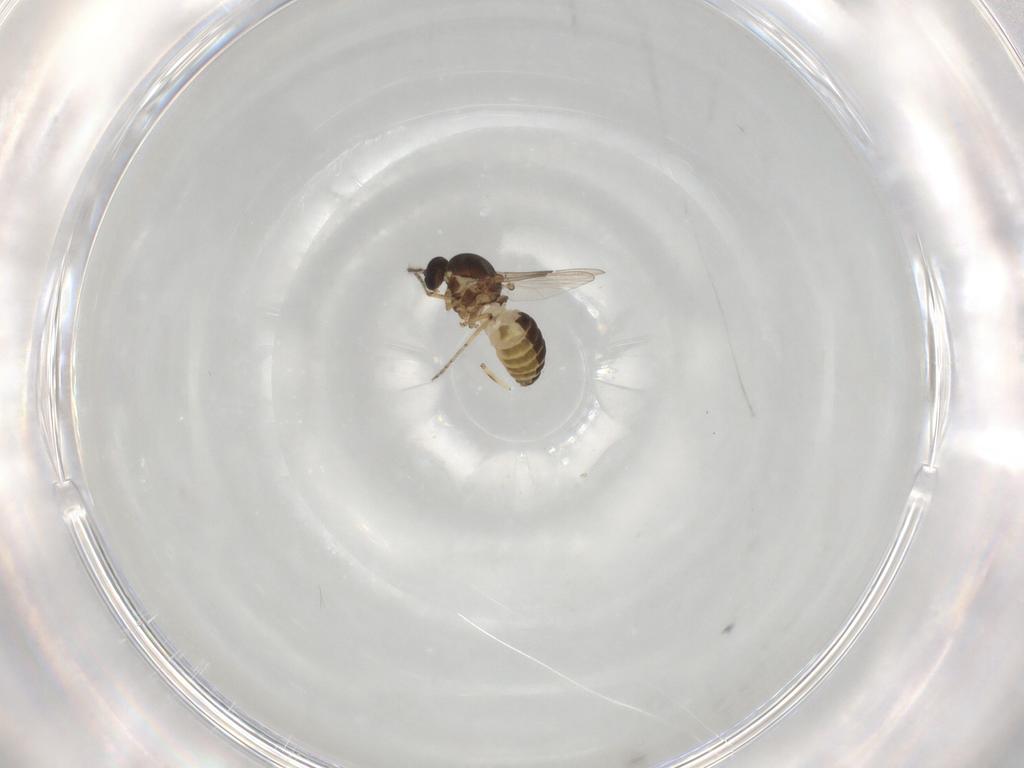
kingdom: Animalia
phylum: Arthropoda
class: Insecta
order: Diptera
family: Ceratopogonidae
